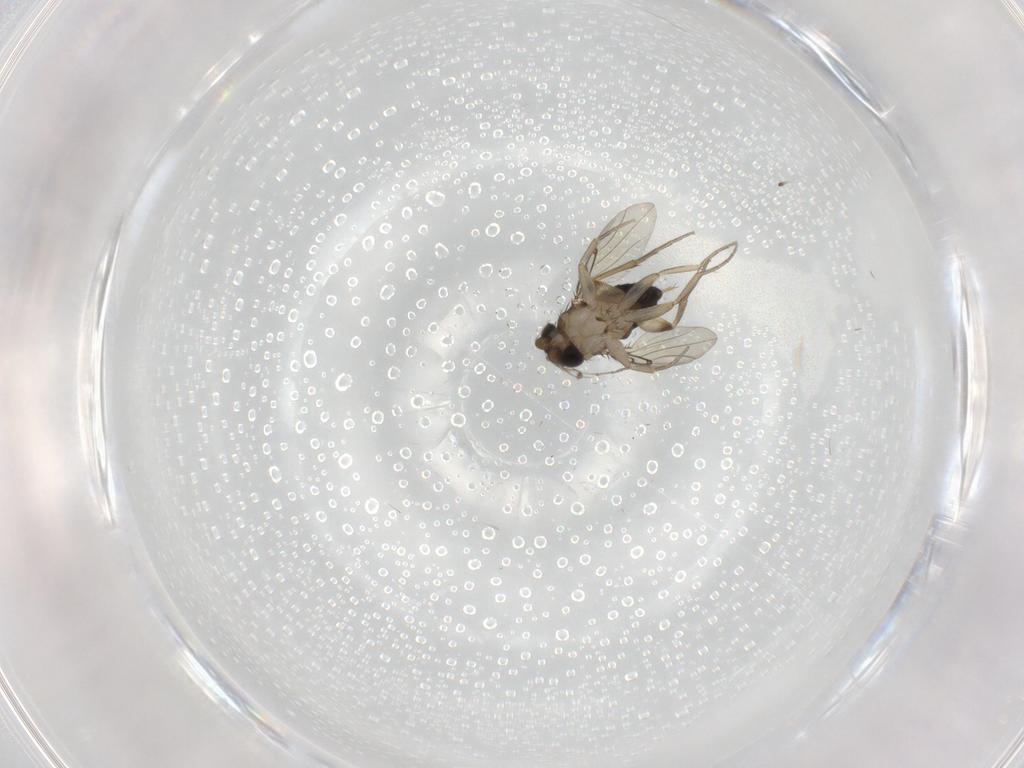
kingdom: Animalia
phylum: Arthropoda
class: Insecta
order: Diptera
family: Phoridae
